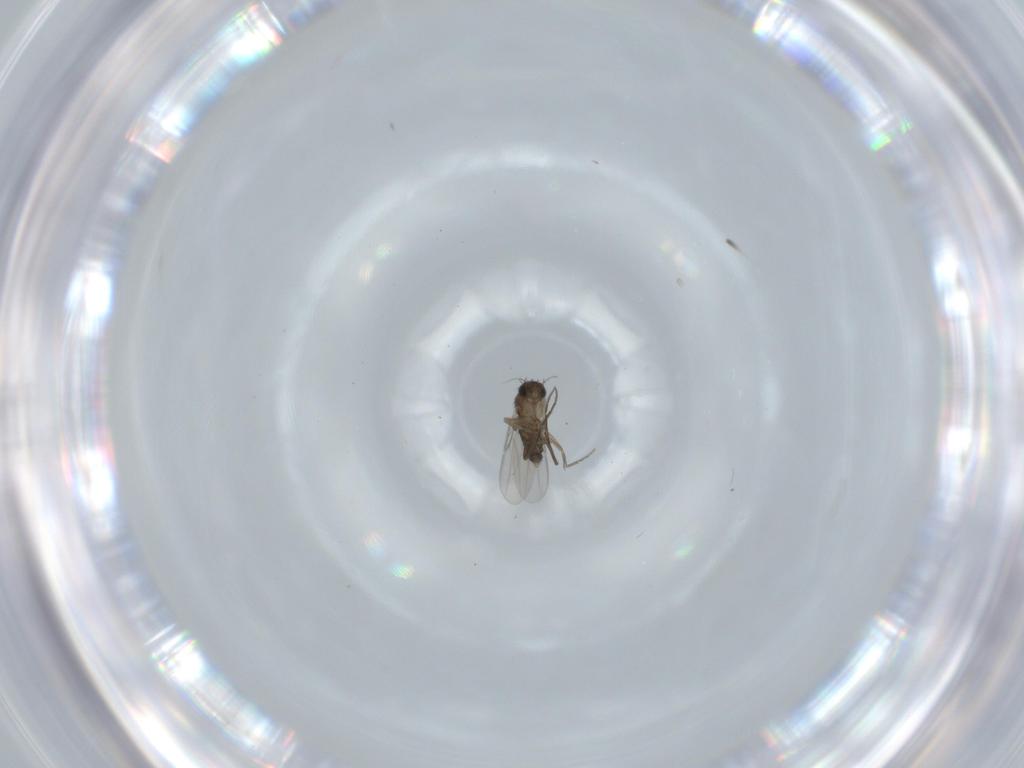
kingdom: Animalia
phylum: Arthropoda
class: Insecta
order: Diptera
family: Phoridae
